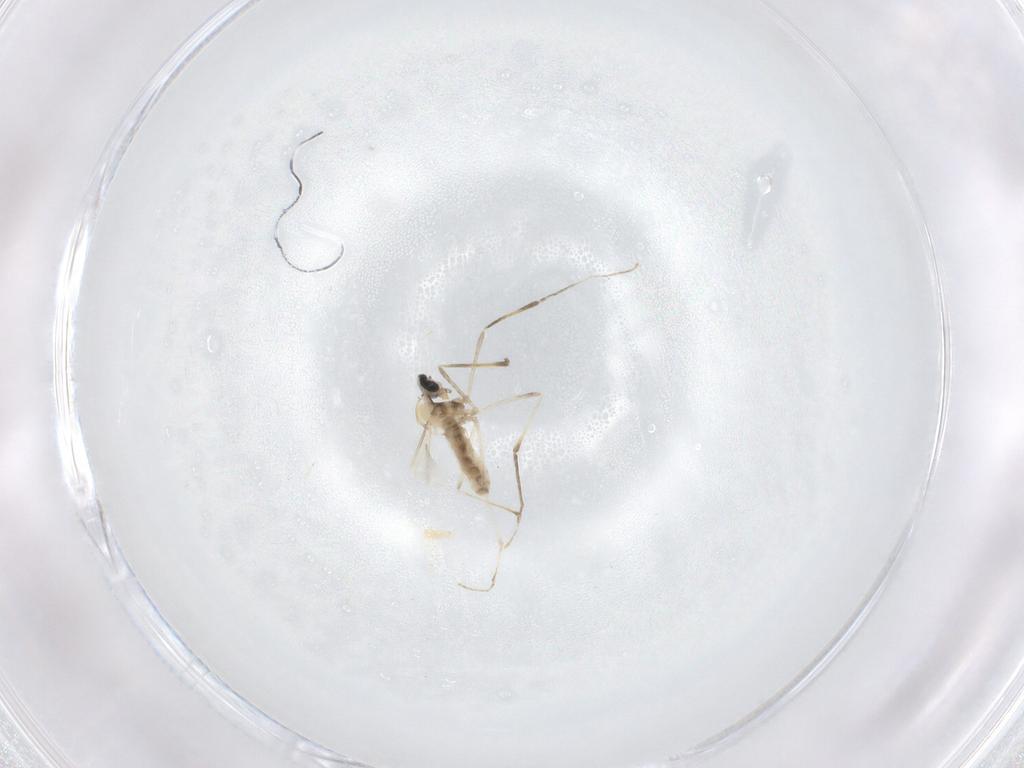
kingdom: Animalia
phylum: Arthropoda
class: Insecta
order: Diptera
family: Cecidomyiidae
